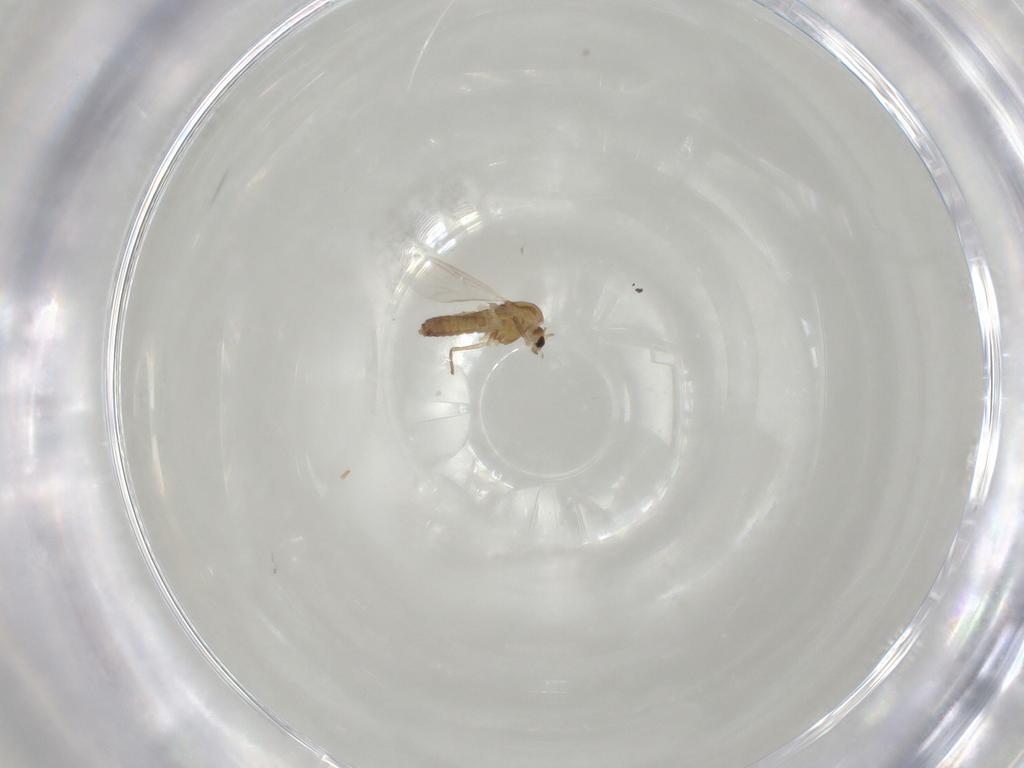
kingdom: Animalia
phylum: Arthropoda
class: Insecta
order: Diptera
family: Chironomidae
